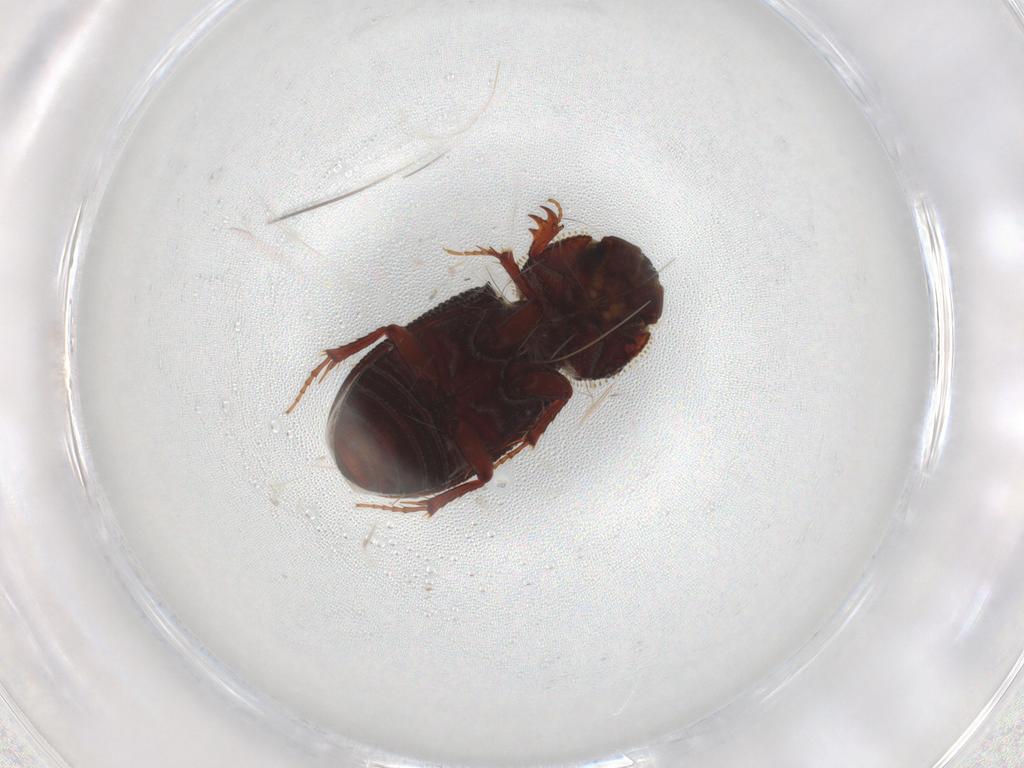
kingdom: Animalia
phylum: Arthropoda
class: Insecta
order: Coleoptera
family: Scarabaeidae
